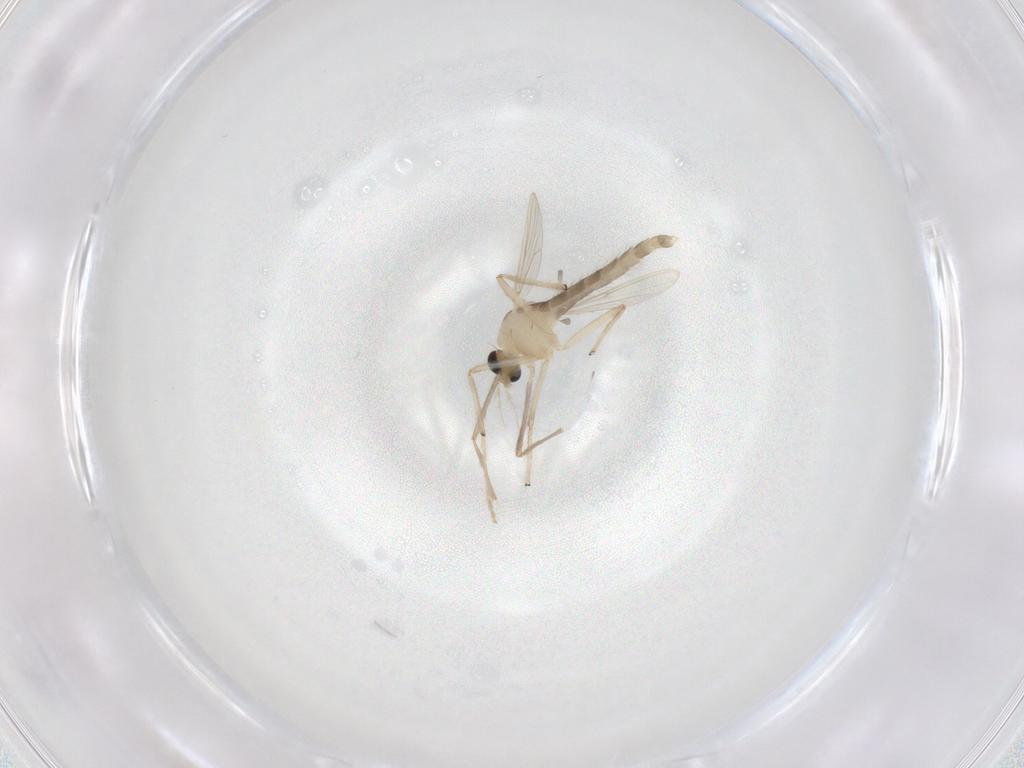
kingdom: Animalia
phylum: Arthropoda
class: Insecta
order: Diptera
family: Chironomidae
